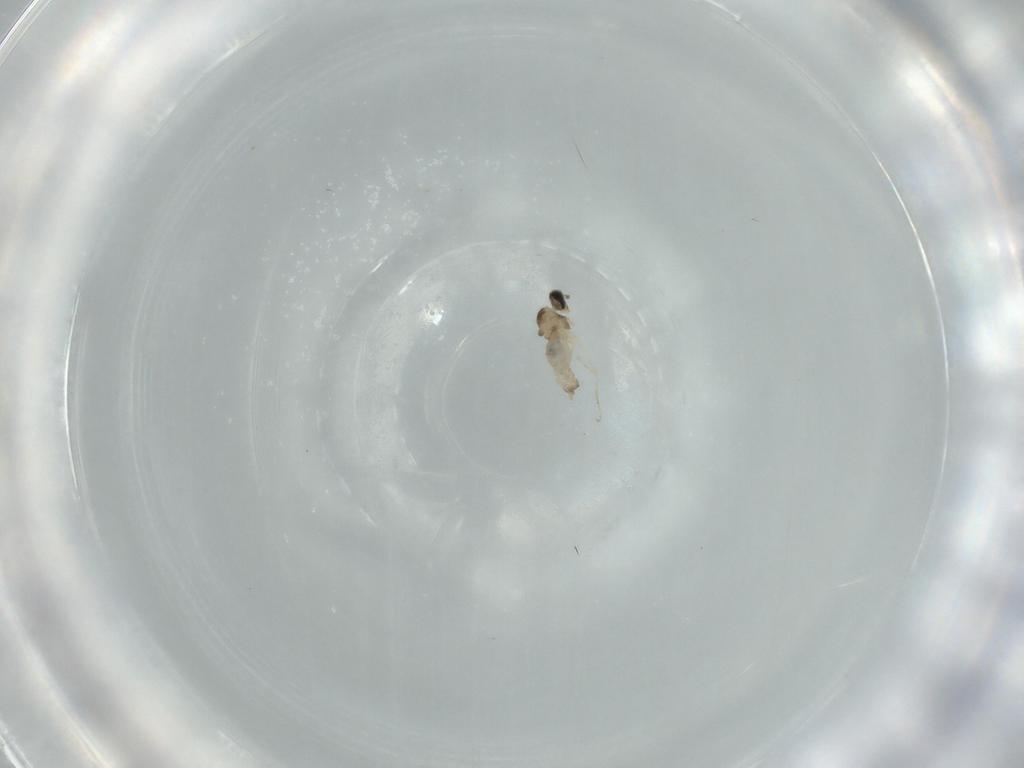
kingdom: Animalia
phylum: Arthropoda
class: Insecta
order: Diptera
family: Cecidomyiidae
